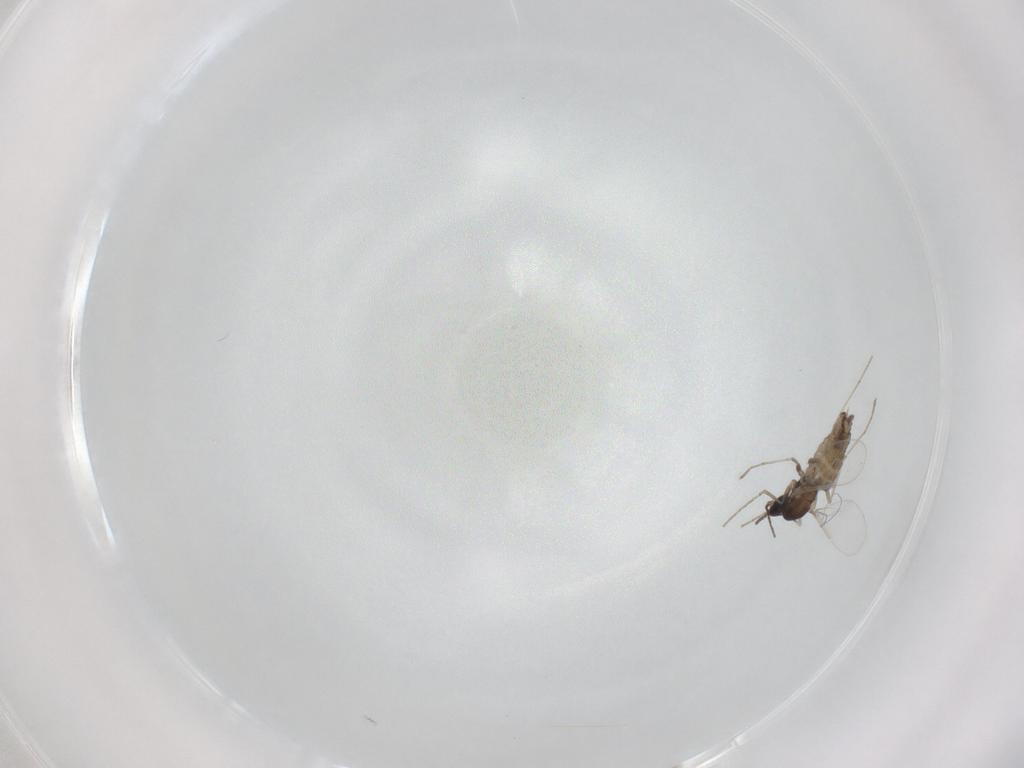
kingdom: Animalia
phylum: Arthropoda
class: Insecta
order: Diptera
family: Cecidomyiidae
